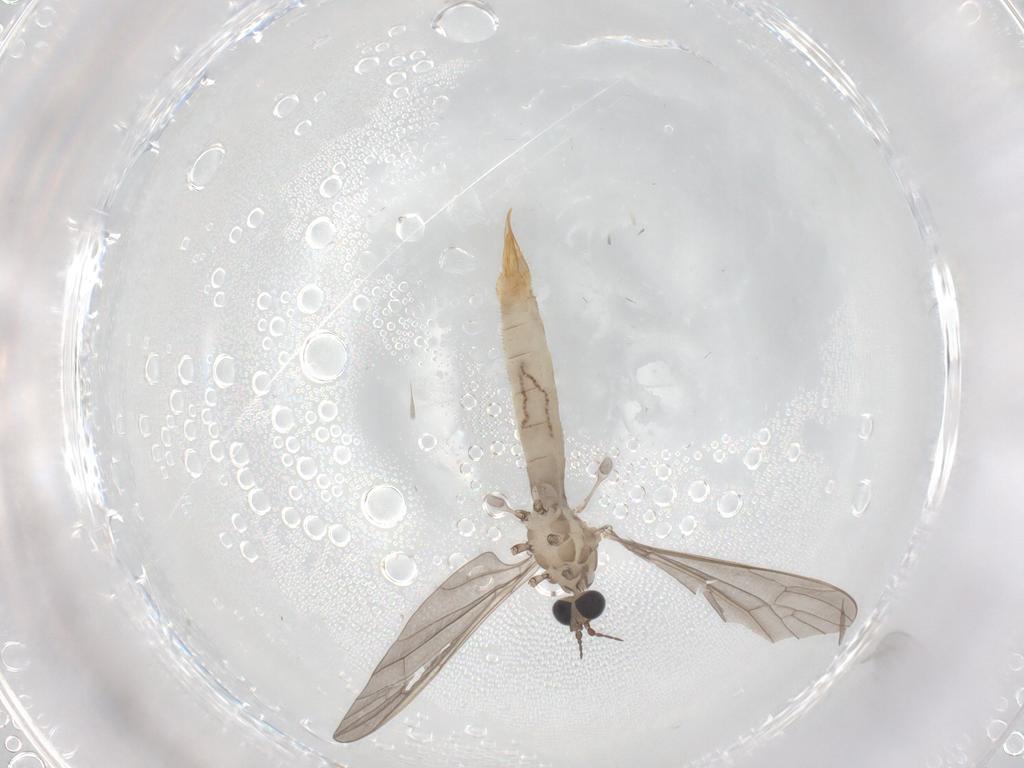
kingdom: Animalia
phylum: Arthropoda
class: Insecta
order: Diptera
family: Limoniidae
